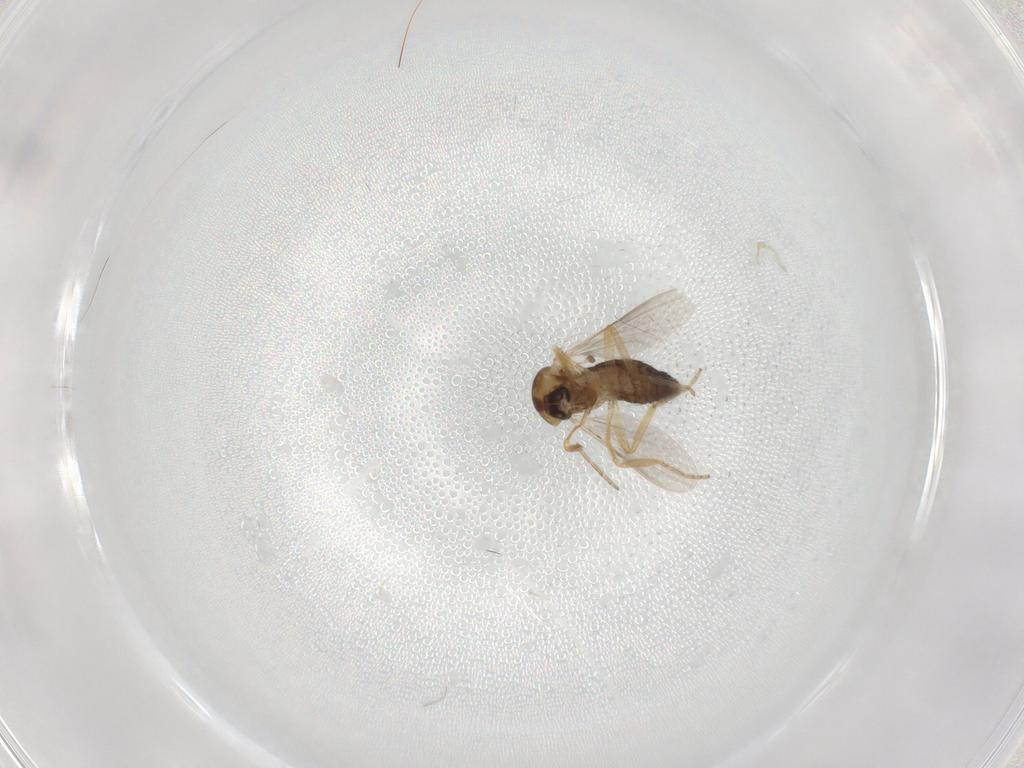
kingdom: Animalia
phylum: Arthropoda
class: Insecta
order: Diptera
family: Ceratopogonidae
